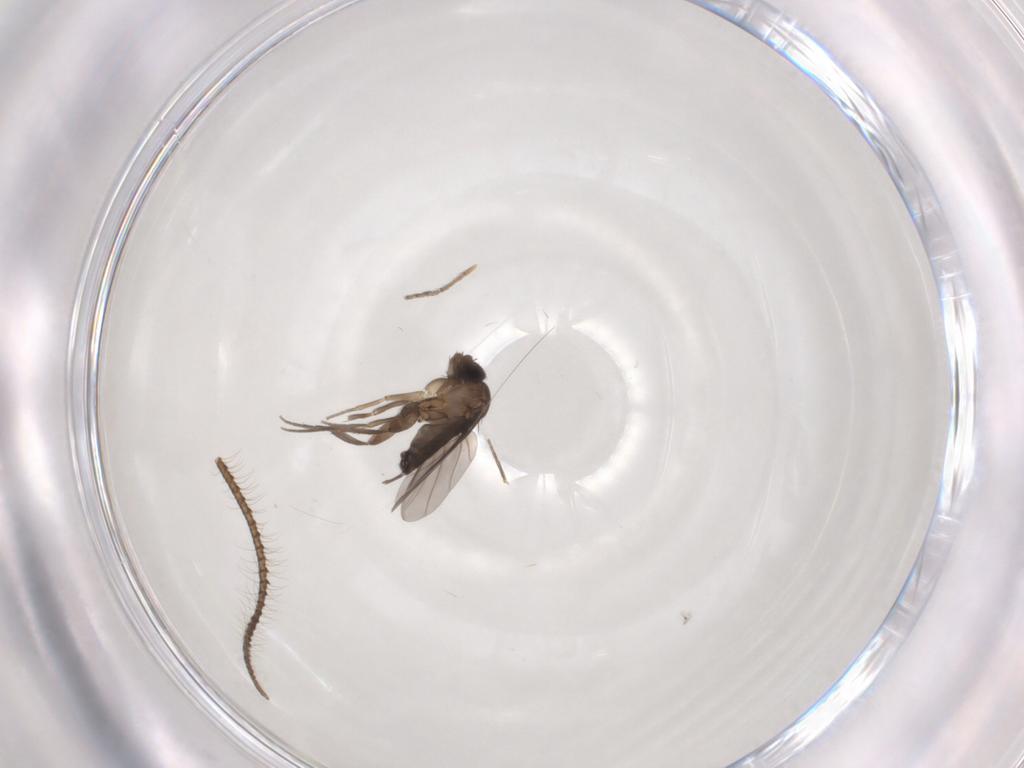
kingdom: Animalia
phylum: Arthropoda
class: Insecta
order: Diptera
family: Phoridae
